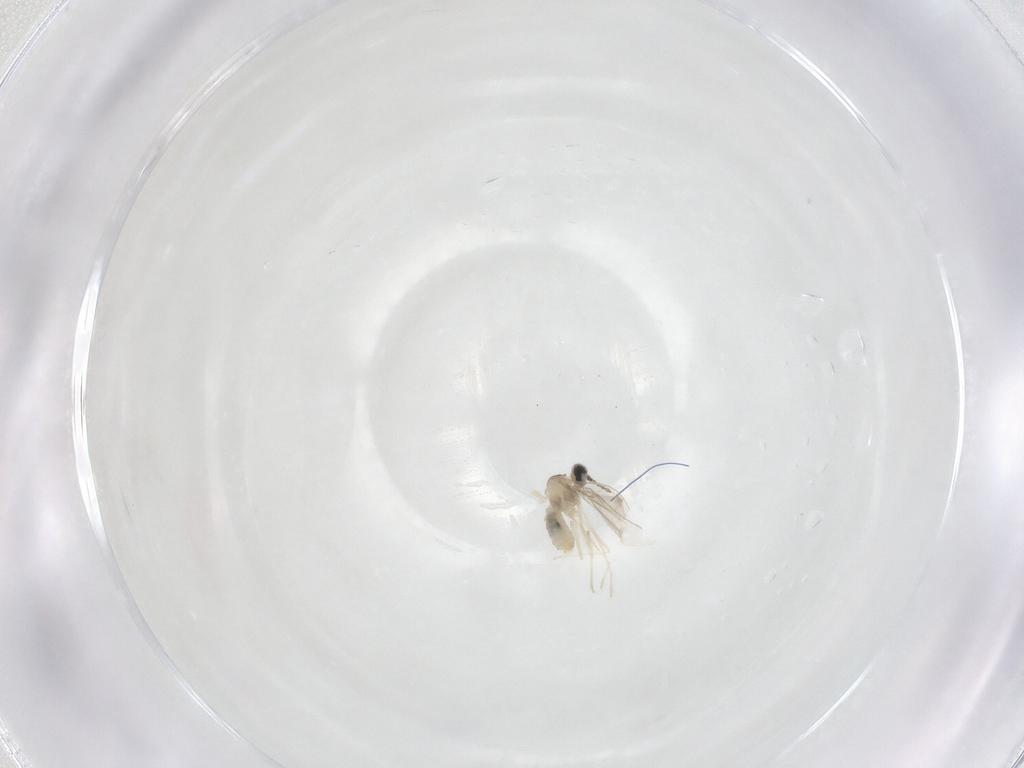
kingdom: Animalia
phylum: Arthropoda
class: Insecta
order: Diptera
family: Cecidomyiidae
